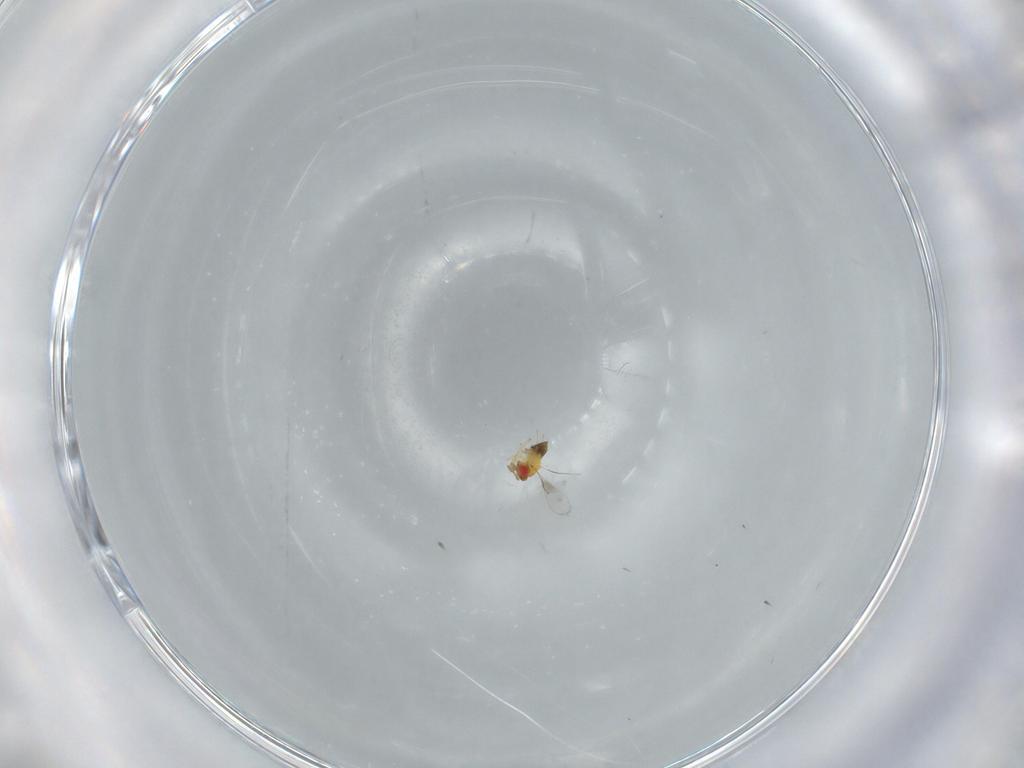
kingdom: Animalia
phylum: Arthropoda
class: Insecta
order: Hymenoptera
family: Trichogrammatidae
